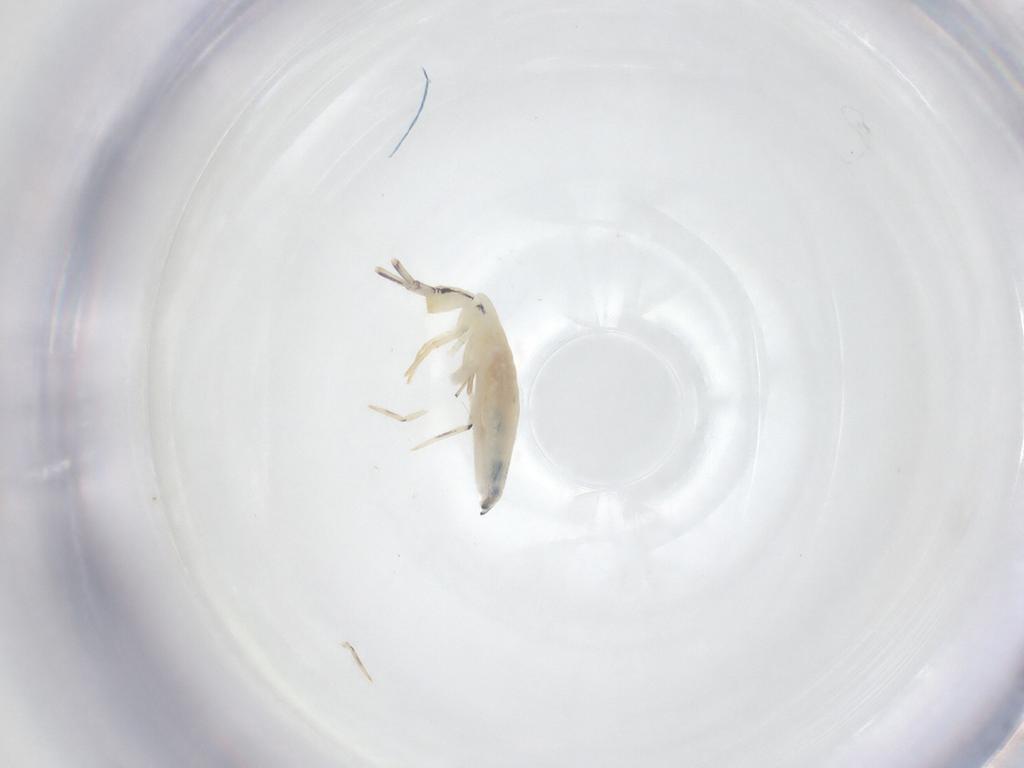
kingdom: Animalia
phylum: Arthropoda
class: Collembola
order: Entomobryomorpha
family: Entomobryidae
